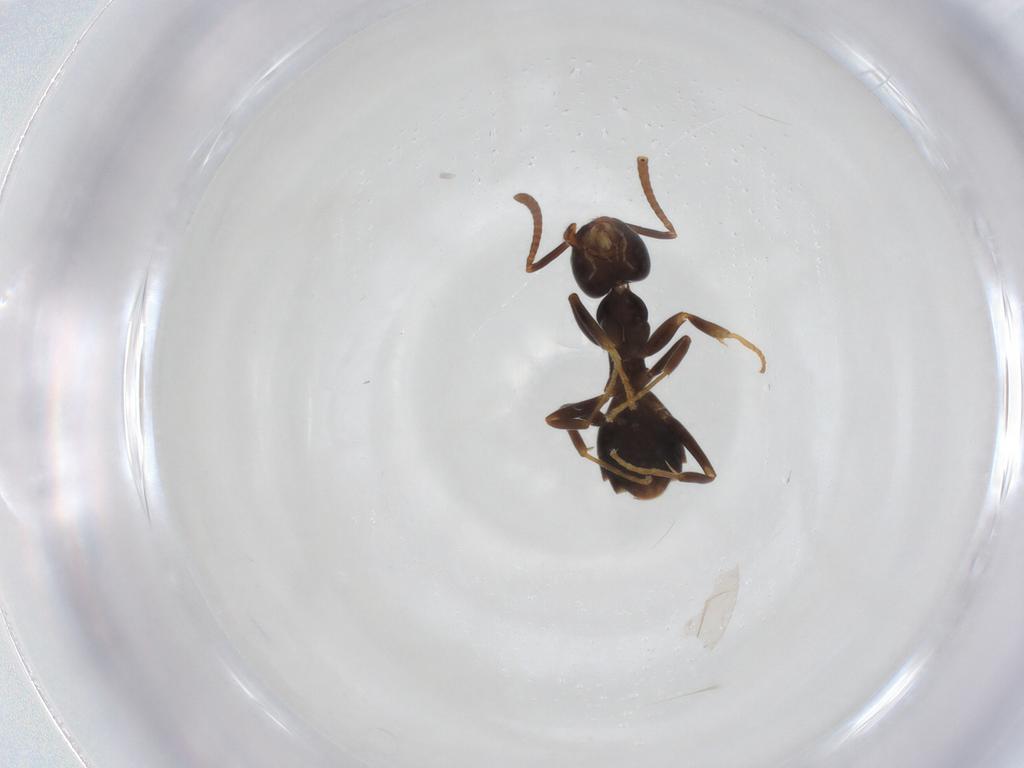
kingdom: Animalia
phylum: Arthropoda
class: Insecta
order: Hymenoptera
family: Formicidae
